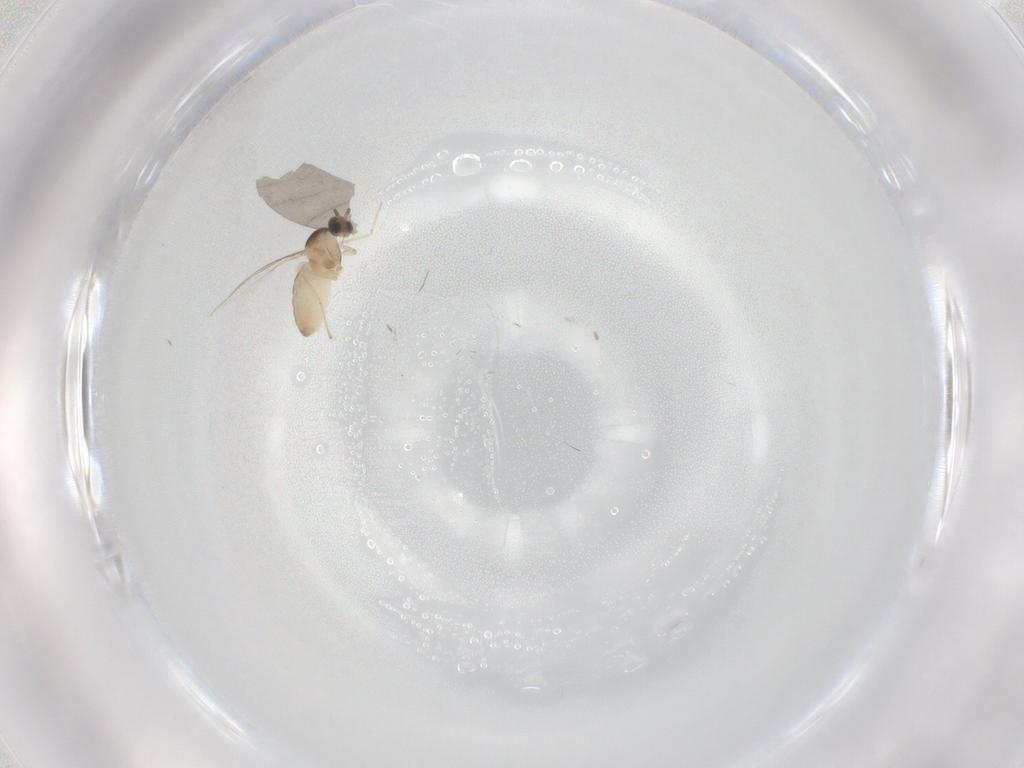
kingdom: Animalia
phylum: Arthropoda
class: Insecta
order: Diptera
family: Cecidomyiidae
